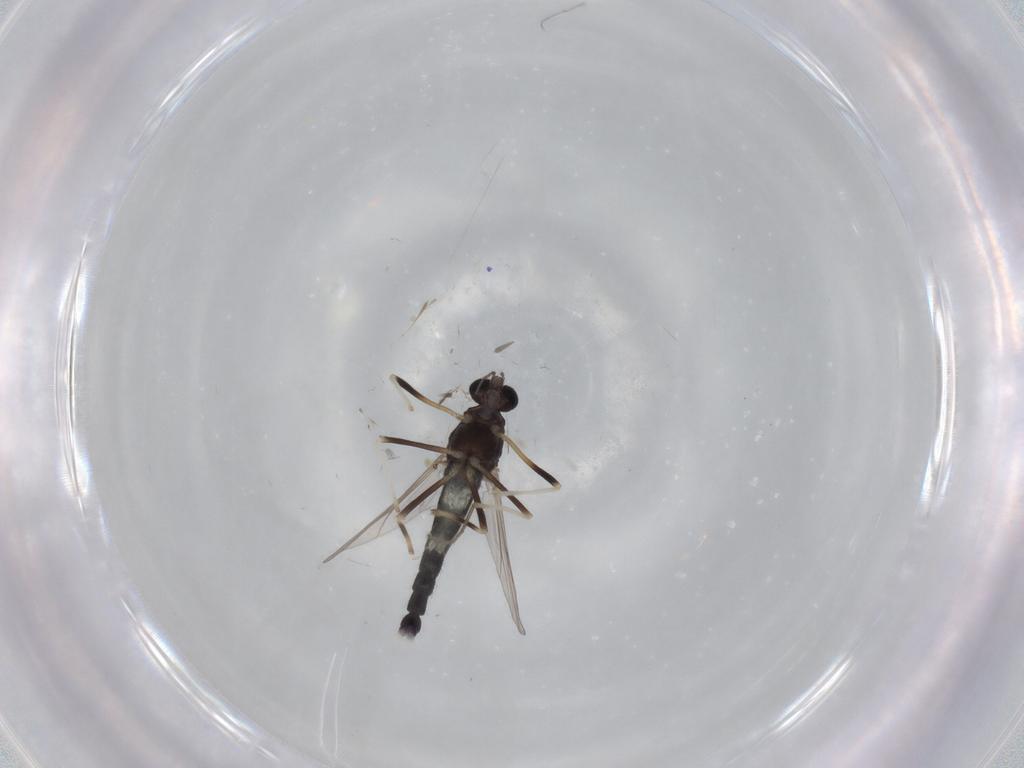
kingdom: Animalia
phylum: Arthropoda
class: Insecta
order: Diptera
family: Chironomidae
